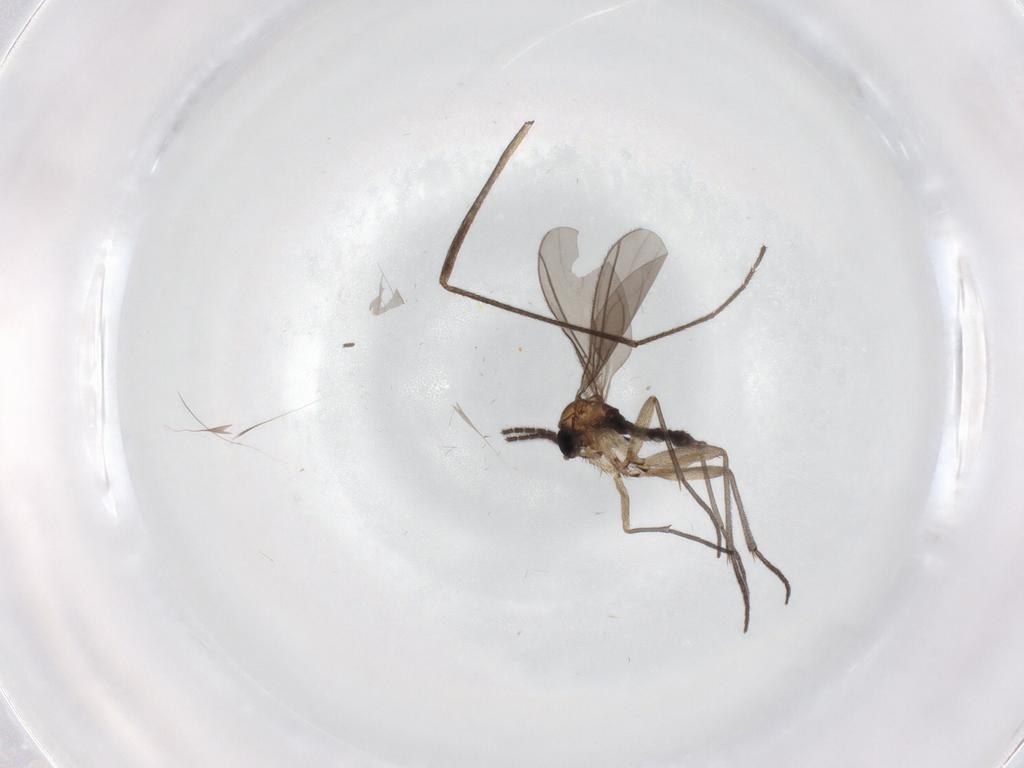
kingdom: Animalia
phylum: Arthropoda
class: Insecta
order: Diptera
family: Sciaridae
